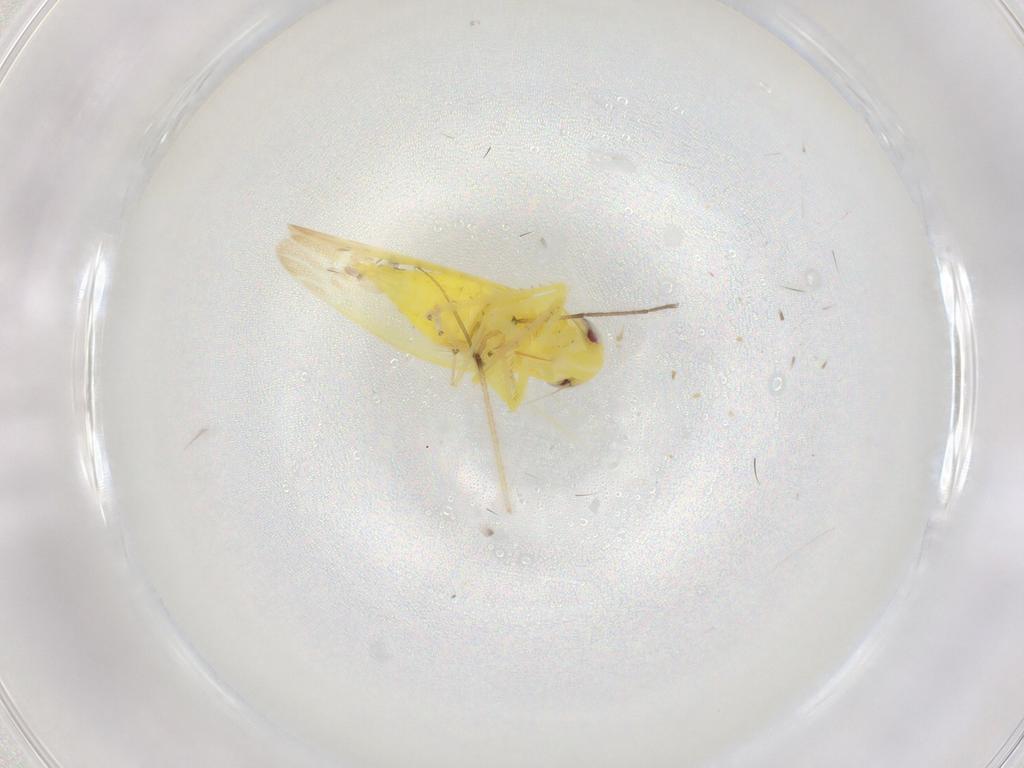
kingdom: Animalia
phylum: Arthropoda
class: Insecta
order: Hemiptera
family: Cicadellidae
